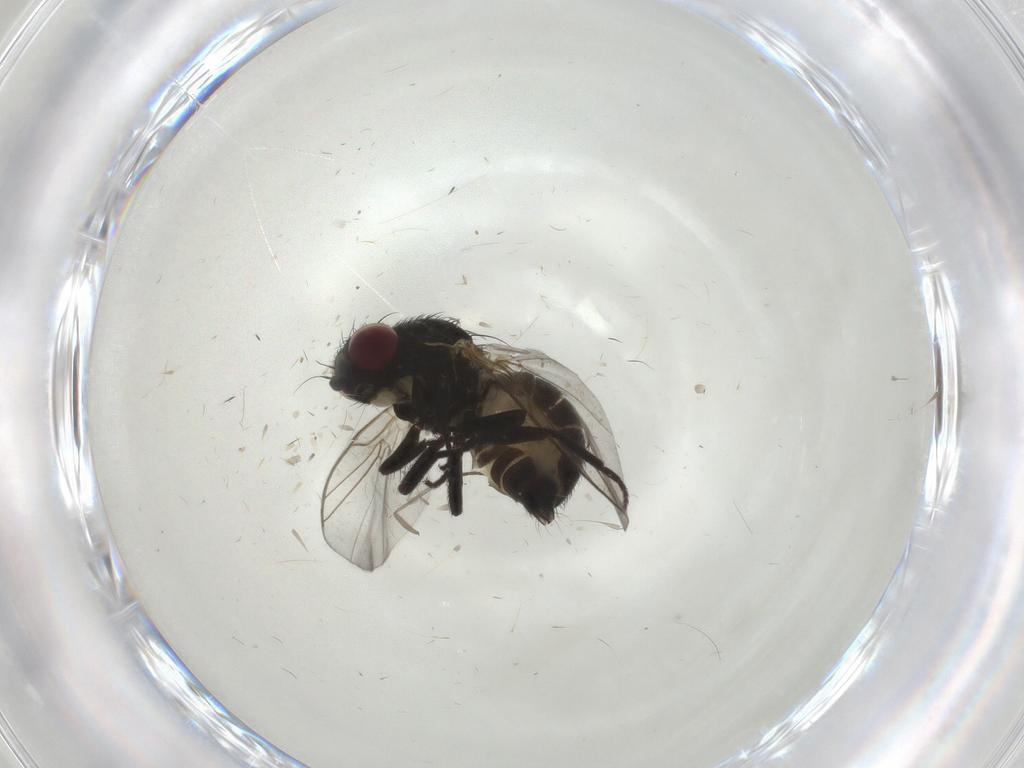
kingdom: Animalia
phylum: Arthropoda
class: Insecta
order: Diptera
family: Agromyzidae
